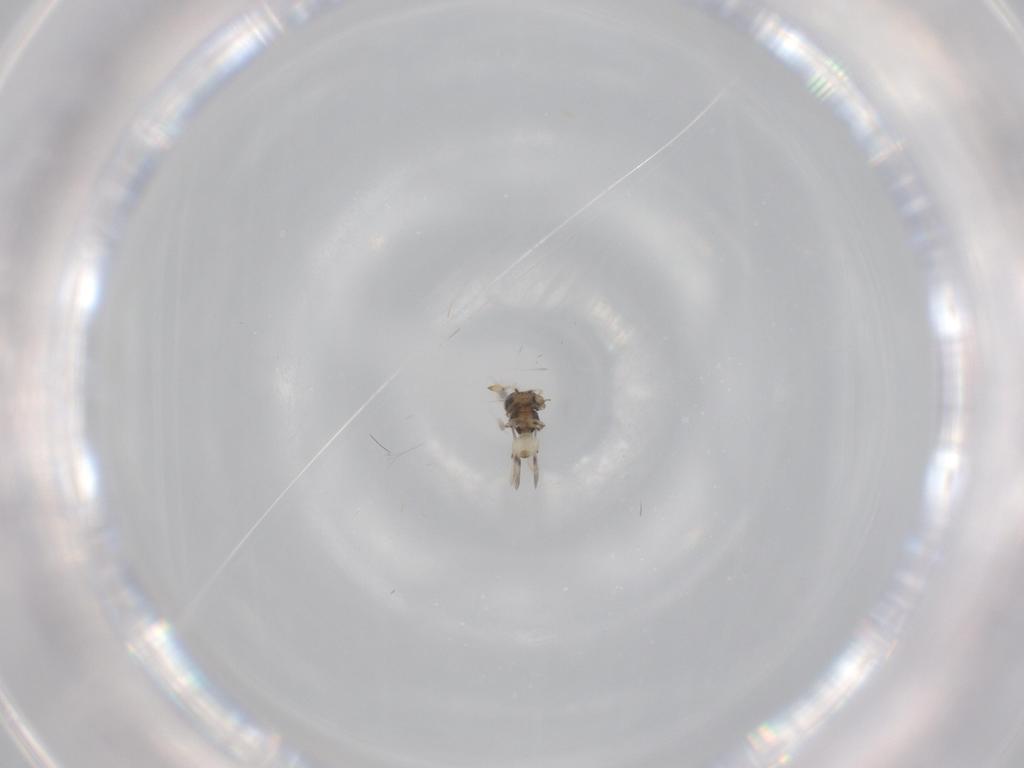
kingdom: Animalia
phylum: Arthropoda
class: Insecta
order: Hymenoptera
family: Scelionidae
